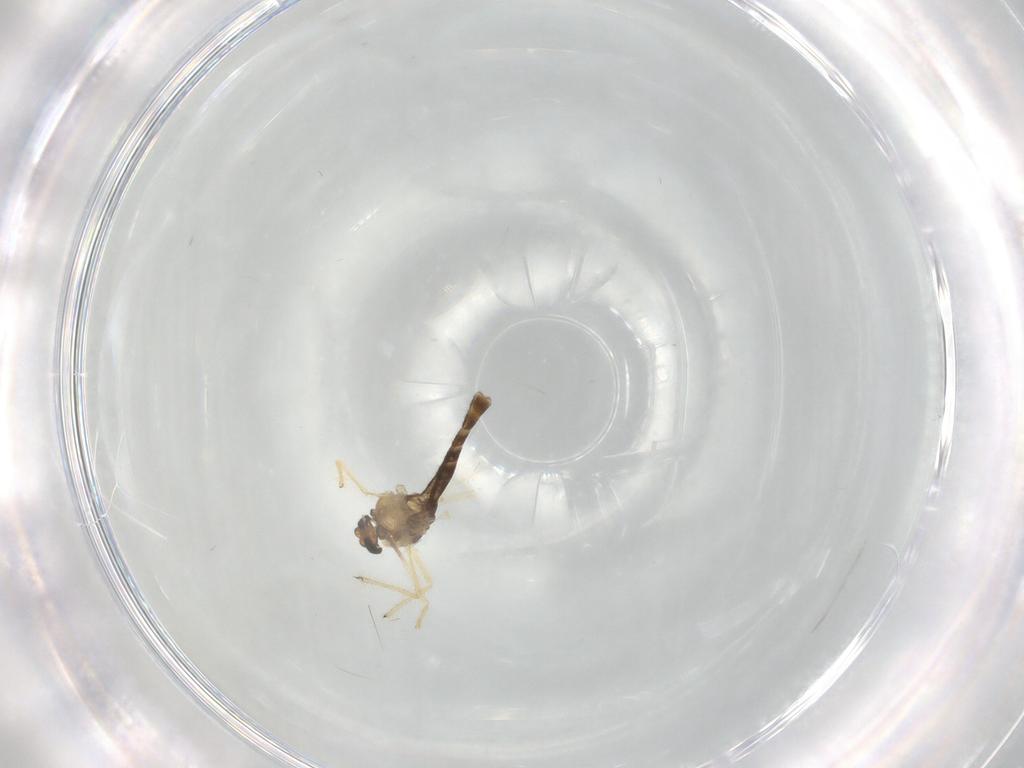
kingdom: Animalia
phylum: Arthropoda
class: Insecta
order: Diptera
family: Chironomidae
